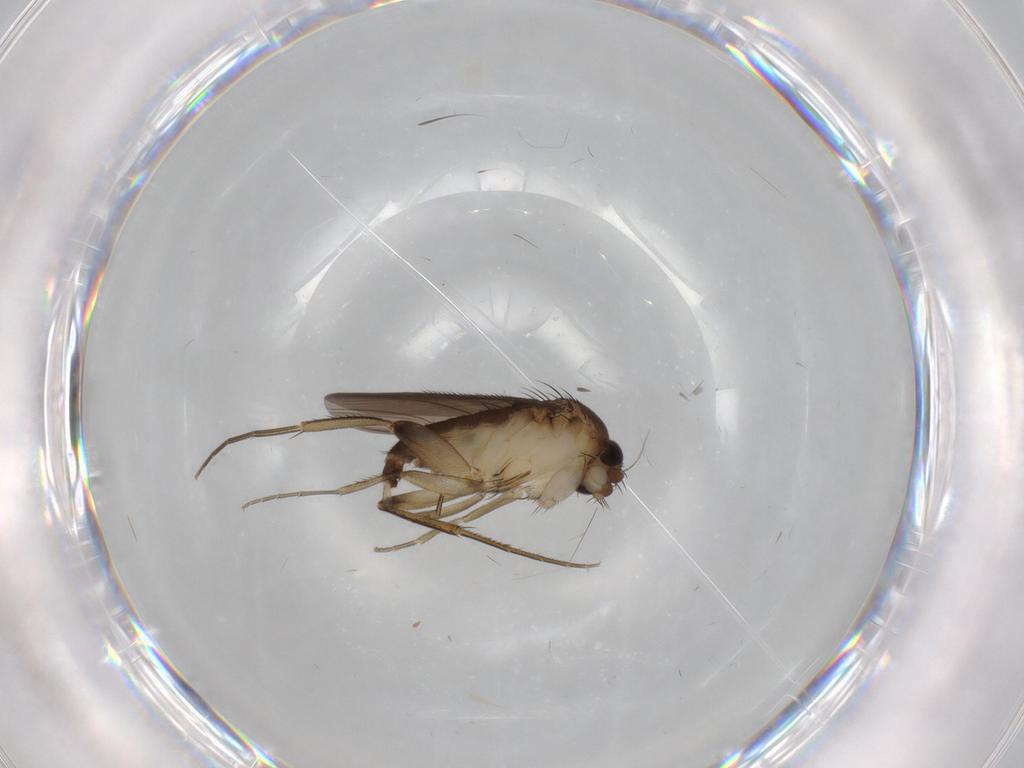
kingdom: Animalia
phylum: Arthropoda
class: Insecta
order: Diptera
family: Phoridae
